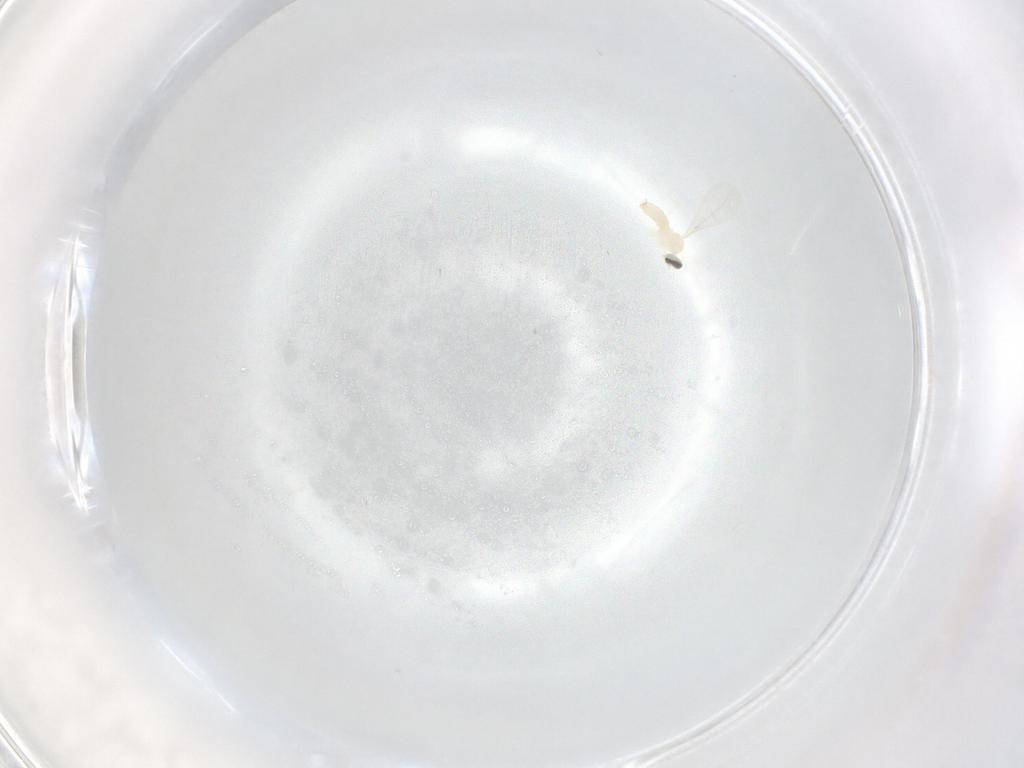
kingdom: Animalia
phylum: Arthropoda
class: Insecta
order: Diptera
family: Cecidomyiidae
